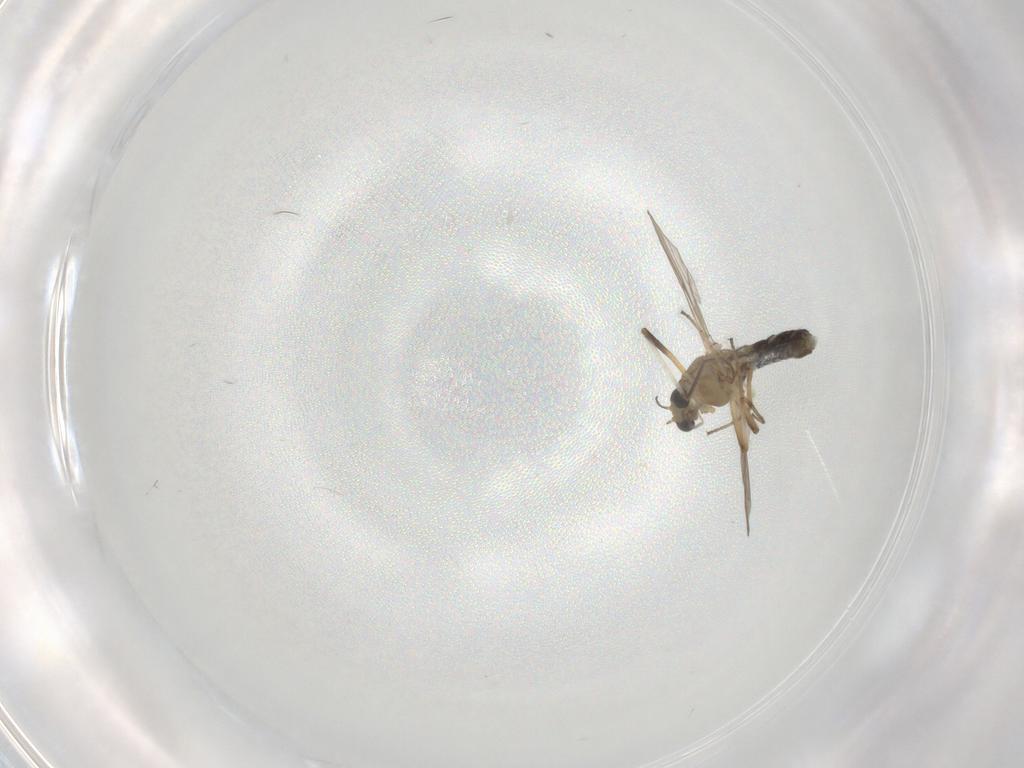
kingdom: Animalia
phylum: Arthropoda
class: Insecta
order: Diptera
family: Chironomidae
